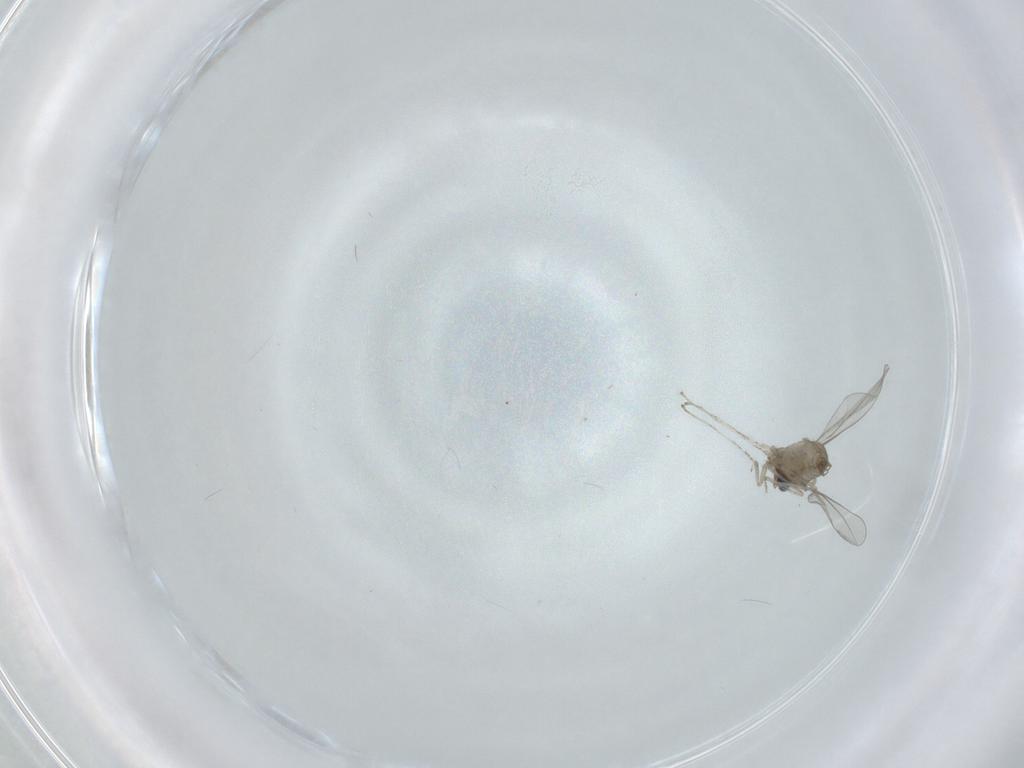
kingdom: Animalia
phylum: Arthropoda
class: Insecta
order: Diptera
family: Cecidomyiidae
